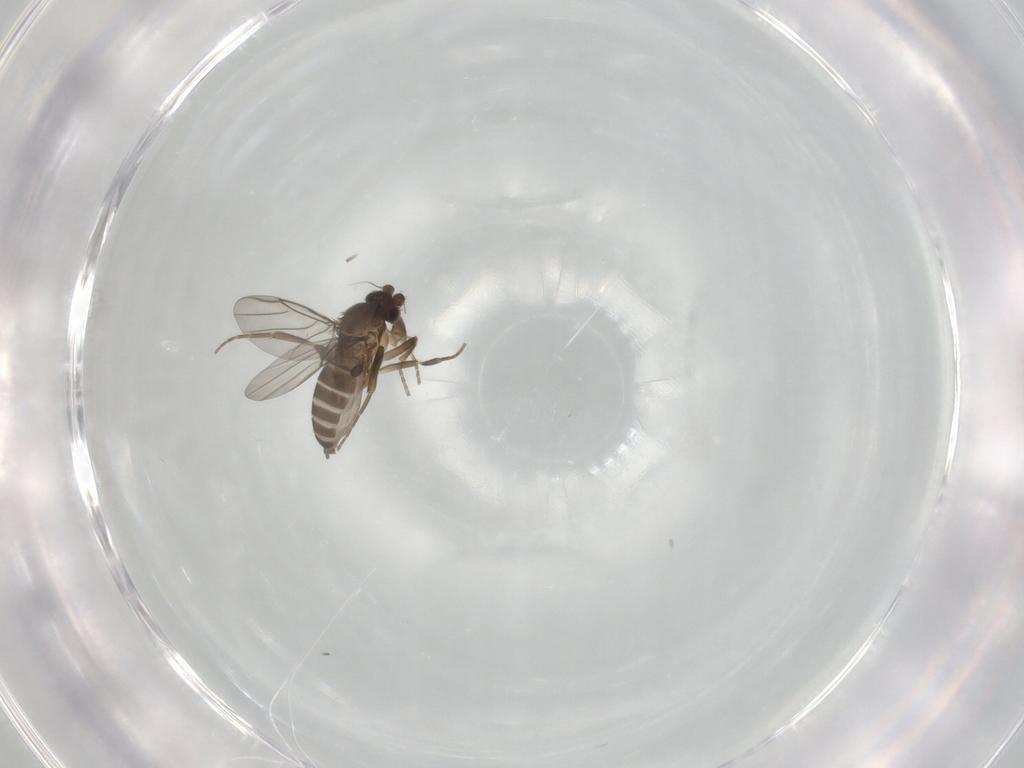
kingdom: Animalia
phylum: Arthropoda
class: Insecta
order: Diptera
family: Phoridae
